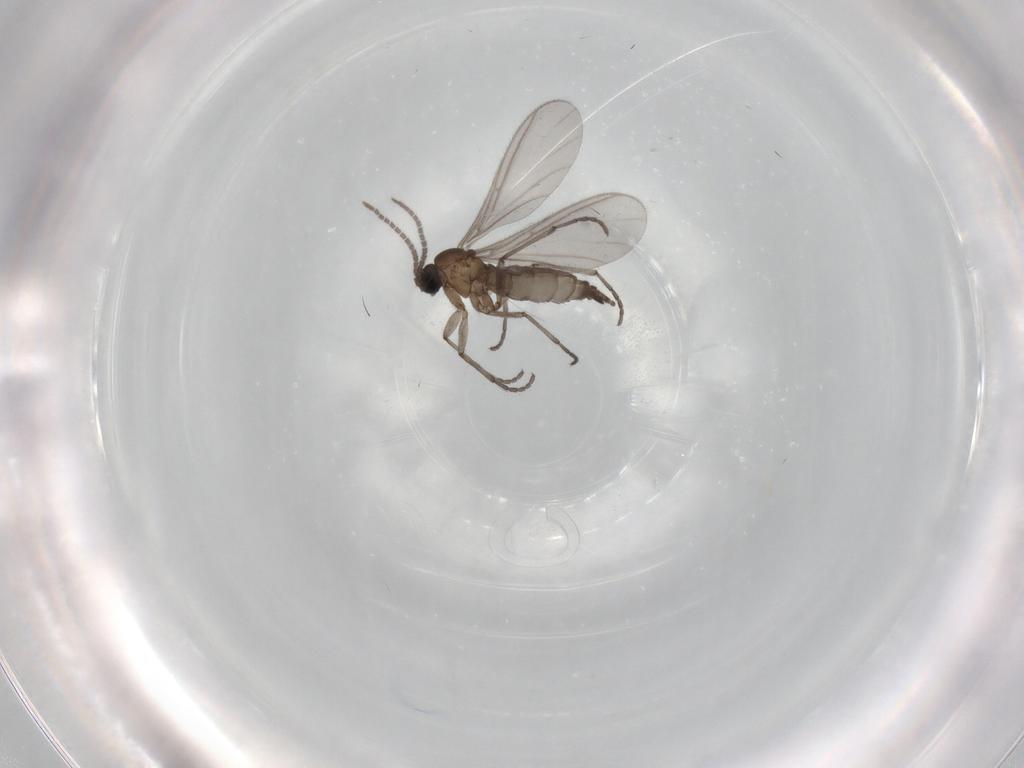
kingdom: Animalia
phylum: Arthropoda
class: Insecta
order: Diptera
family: Sciaridae
